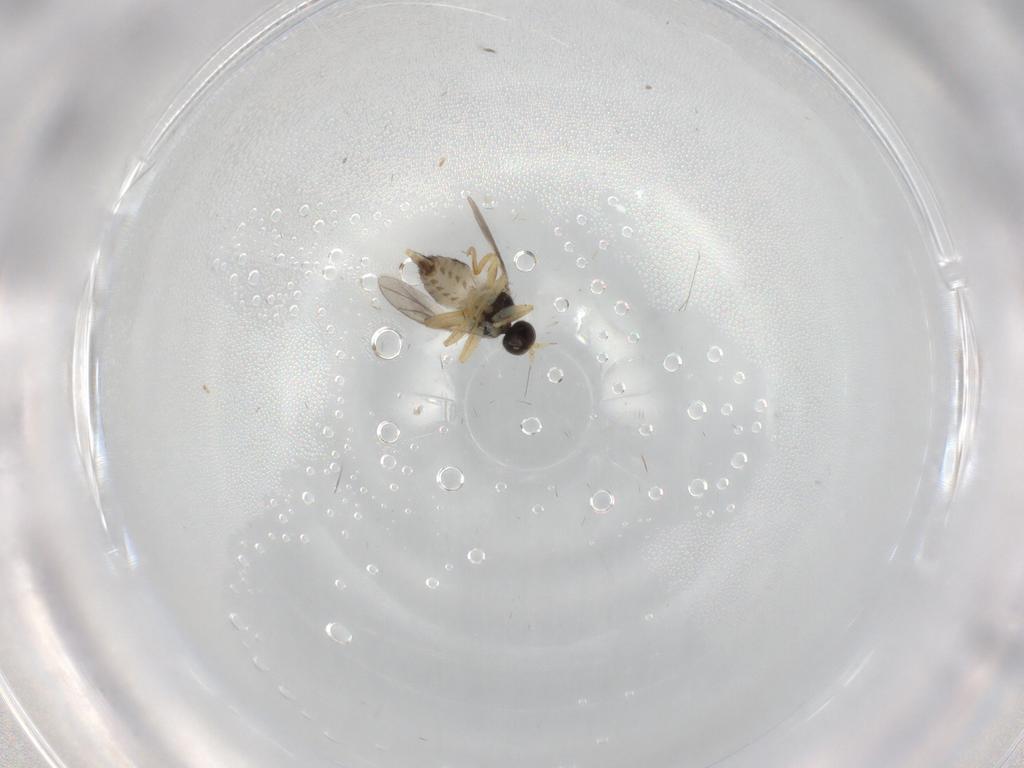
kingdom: Animalia
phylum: Arthropoda
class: Insecta
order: Diptera
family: Hybotidae
